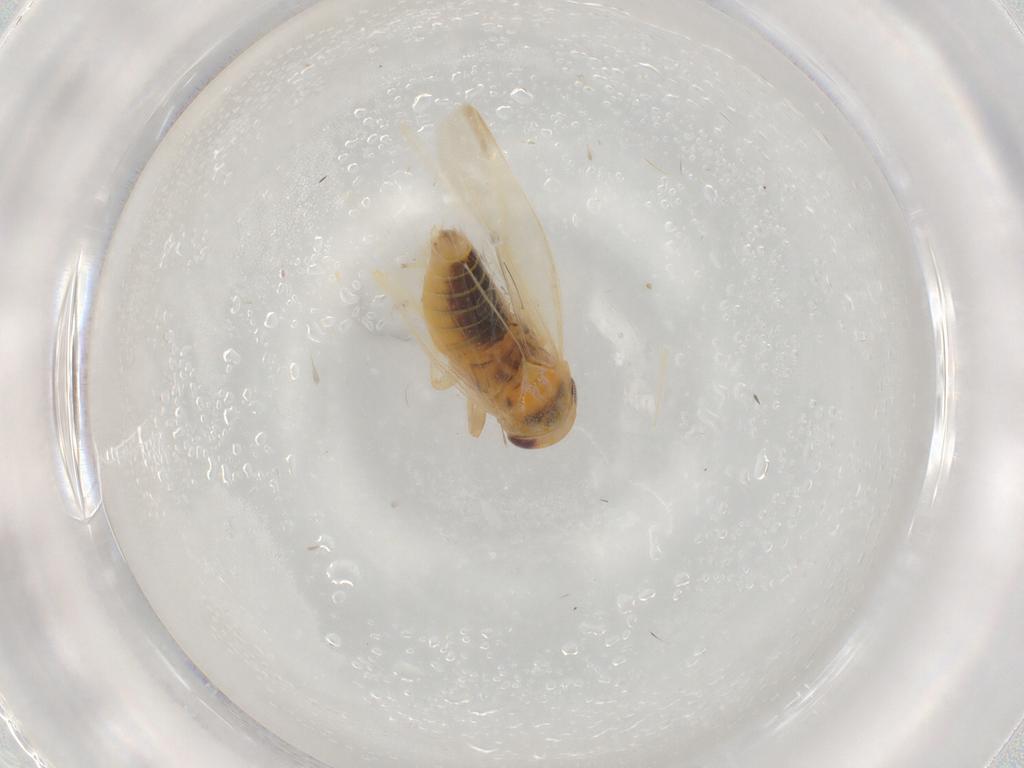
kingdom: Animalia
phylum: Arthropoda
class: Insecta
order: Hemiptera
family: Cicadellidae
